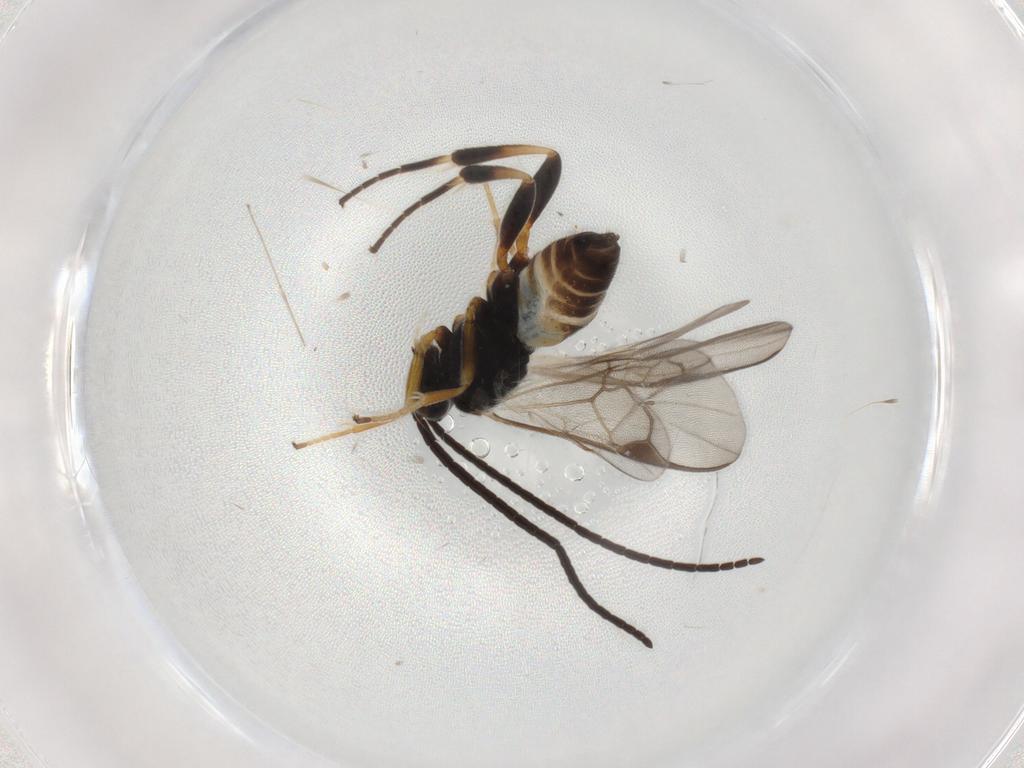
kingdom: Animalia
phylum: Arthropoda
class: Insecta
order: Hymenoptera
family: Braconidae
